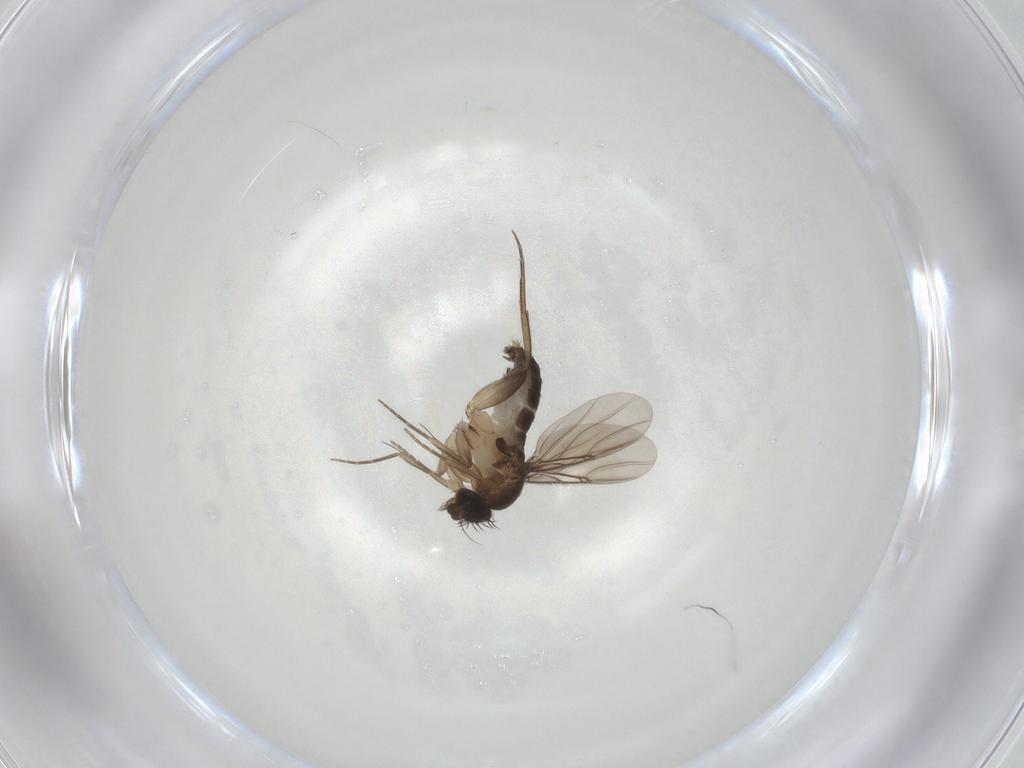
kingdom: Animalia
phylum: Arthropoda
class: Insecta
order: Diptera
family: Phoridae
